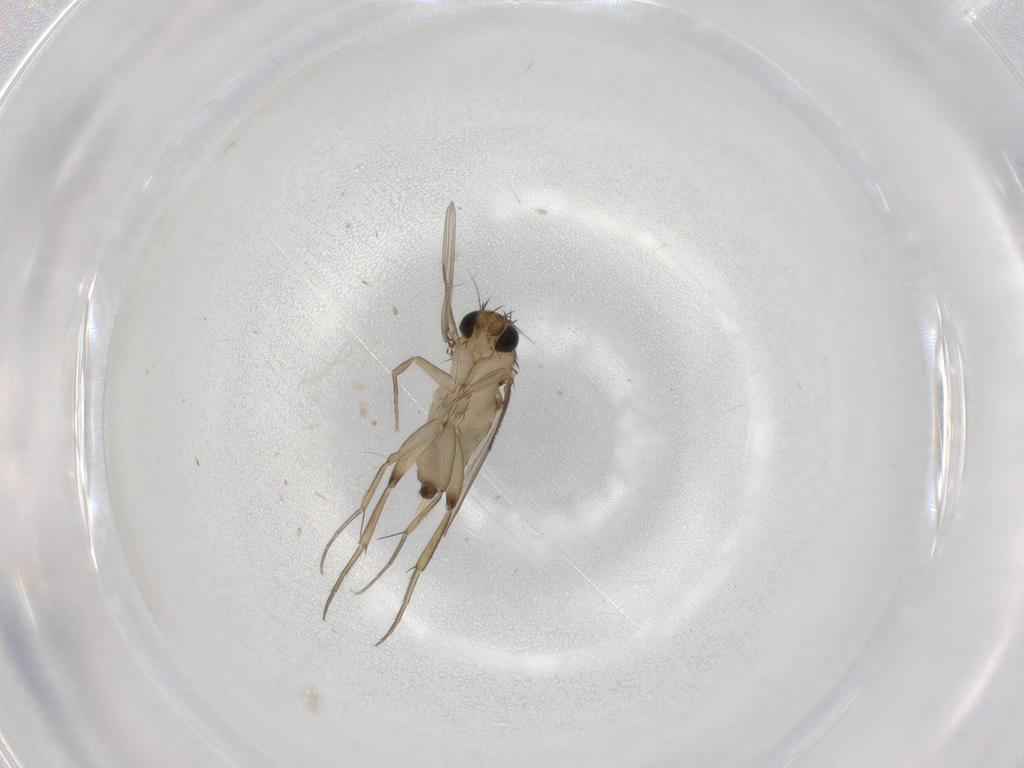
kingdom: Animalia
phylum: Arthropoda
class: Insecta
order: Diptera
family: Phoridae
